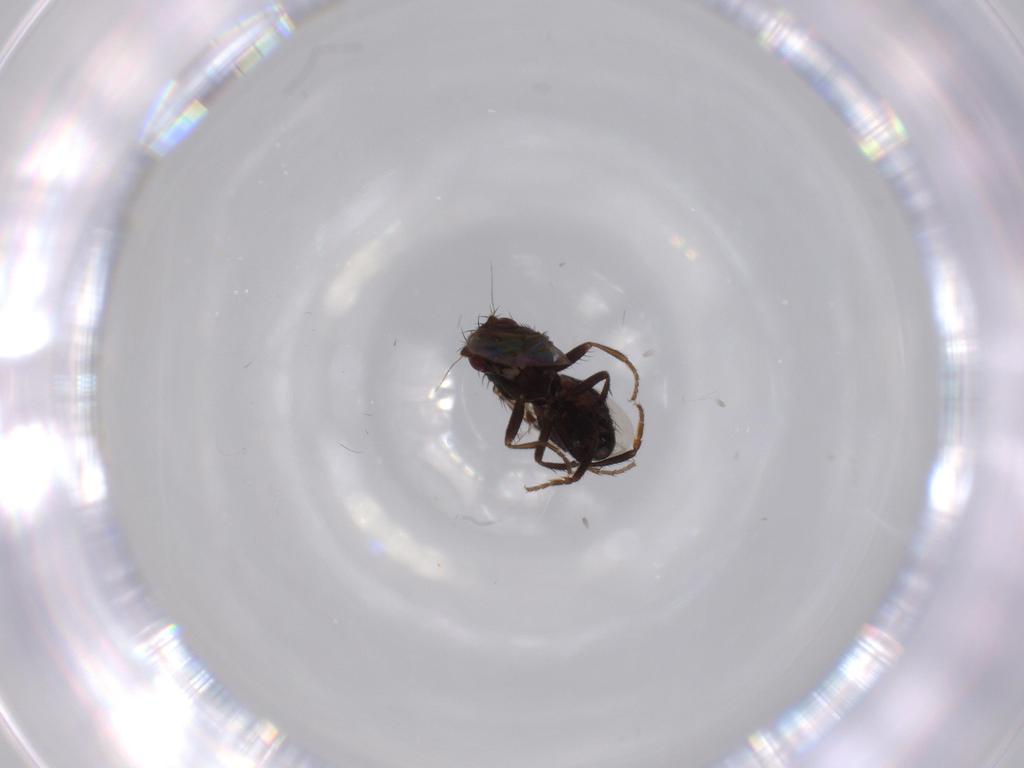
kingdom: Animalia
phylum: Arthropoda
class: Insecta
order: Diptera
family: Sphaeroceridae
